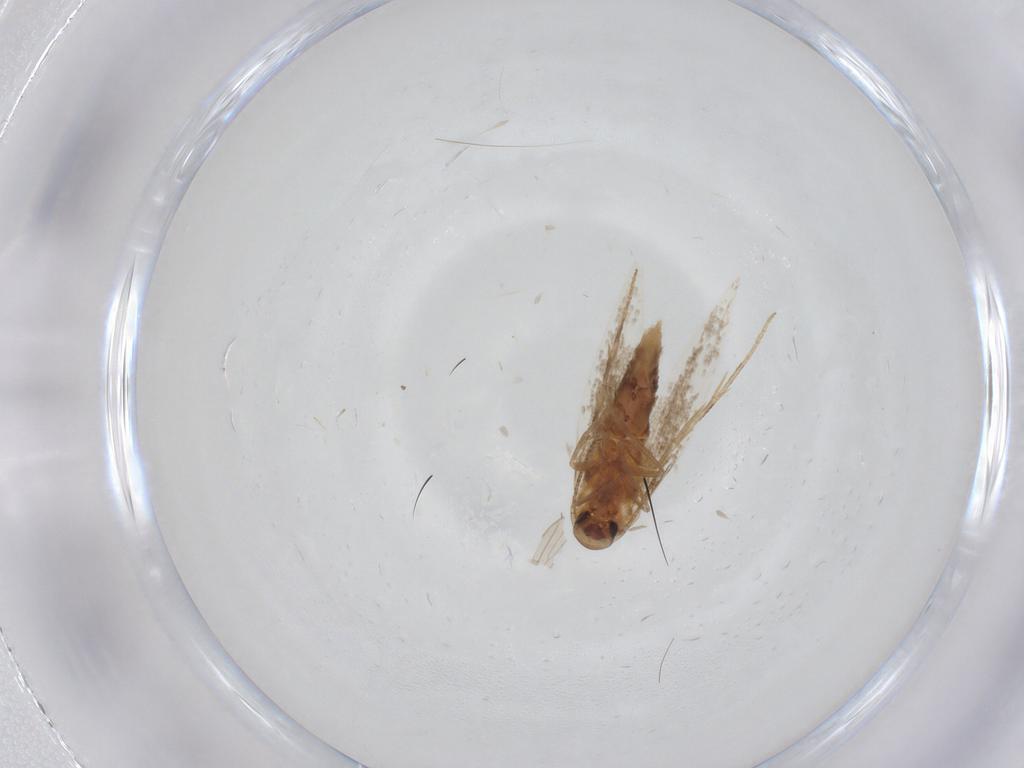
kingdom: Animalia
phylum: Arthropoda
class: Insecta
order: Lepidoptera
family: Gelechiidae
